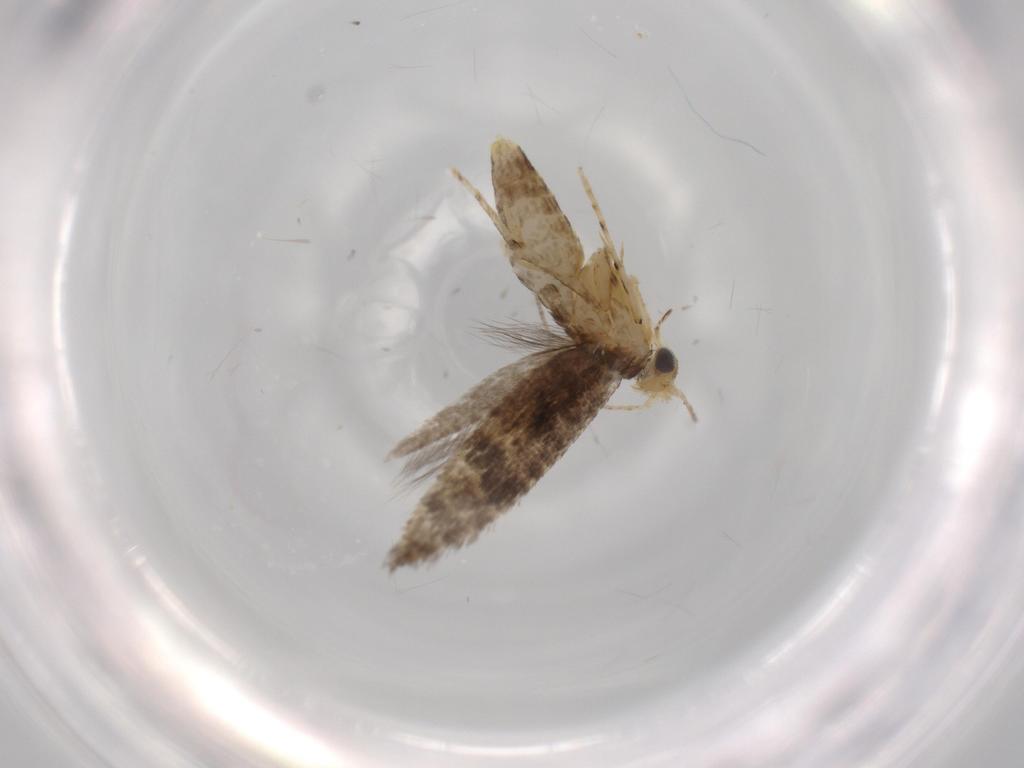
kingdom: Animalia
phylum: Arthropoda
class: Insecta
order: Lepidoptera
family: Argyresthiidae
